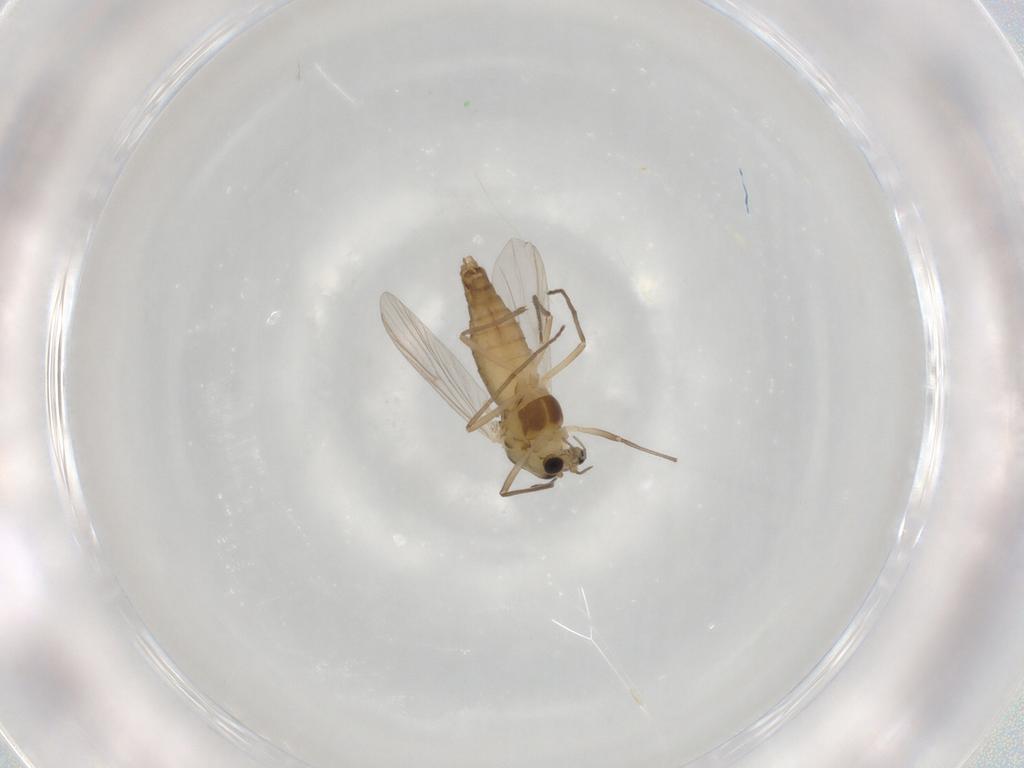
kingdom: Animalia
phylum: Arthropoda
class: Insecta
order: Diptera
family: Chironomidae
